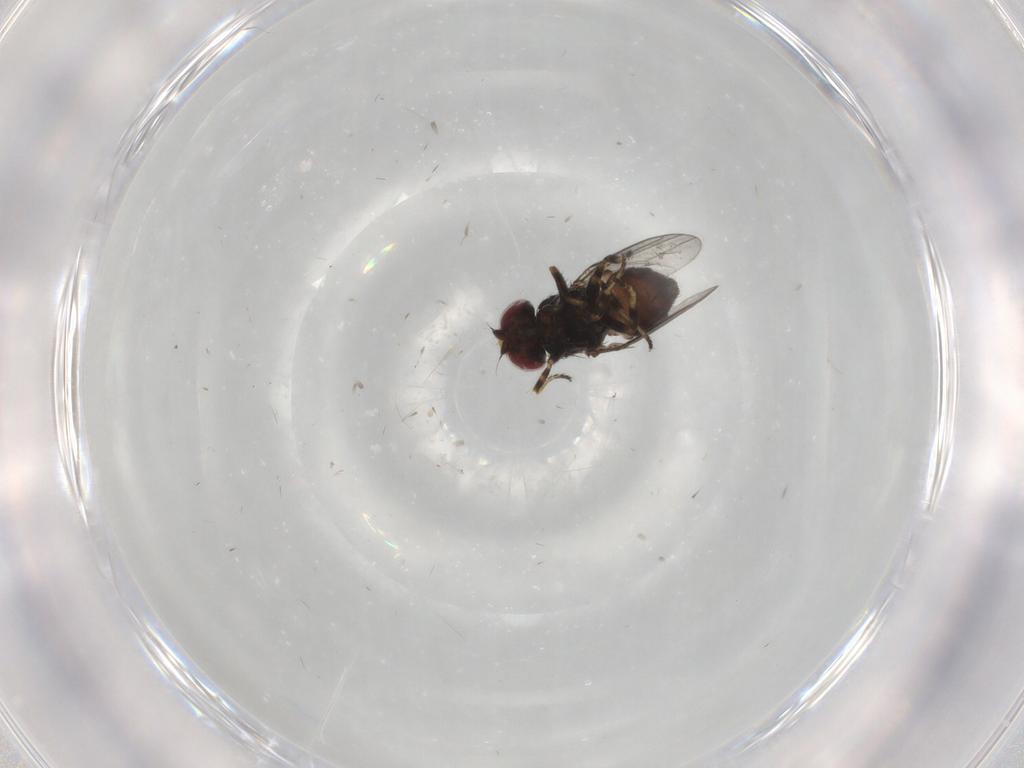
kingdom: Animalia
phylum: Arthropoda
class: Insecta
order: Diptera
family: Chloropidae
